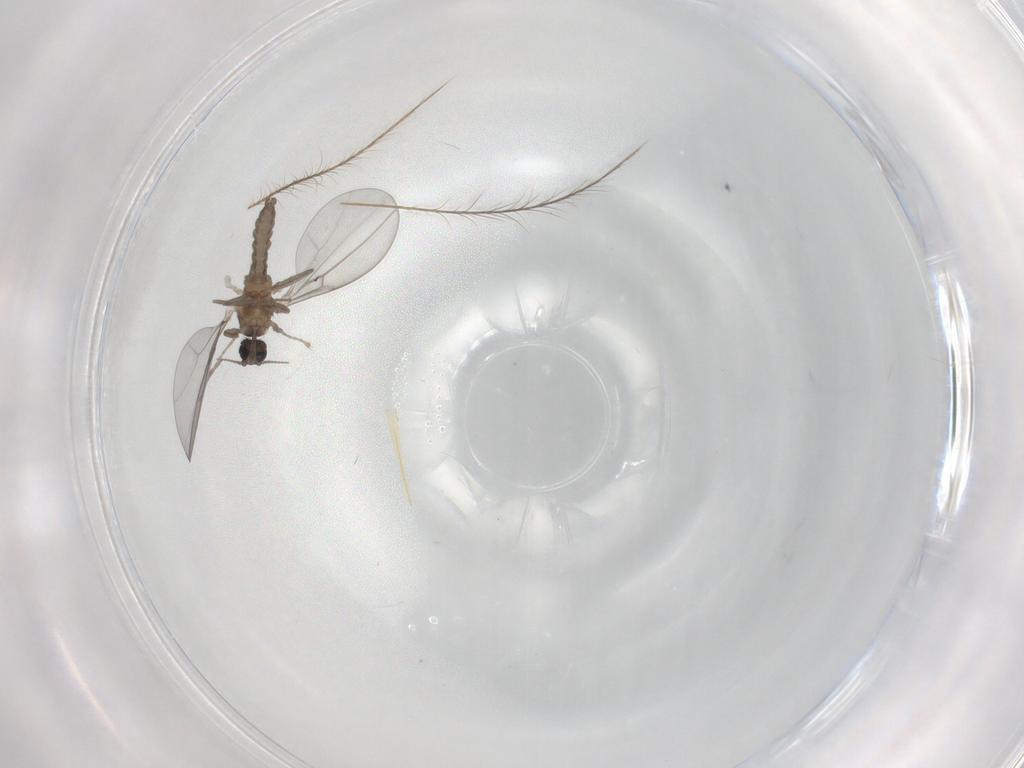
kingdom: Animalia
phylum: Arthropoda
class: Insecta
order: Diptera
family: Cecidomyiidae
